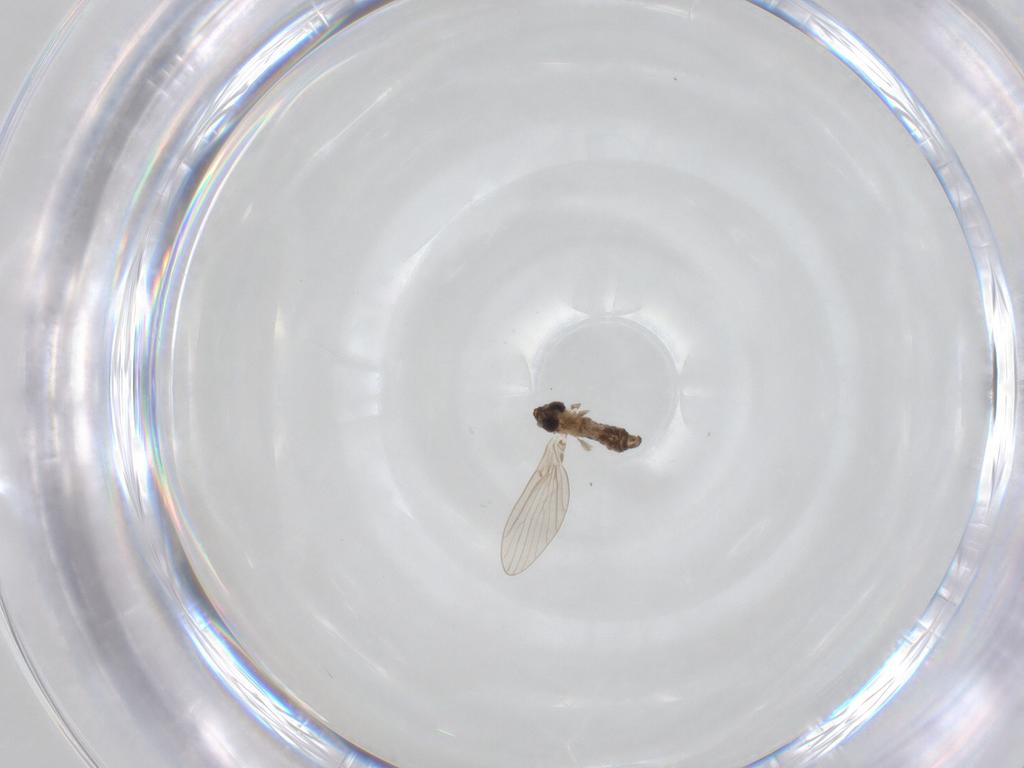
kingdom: Animalia
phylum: Arthropoda
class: Insecta
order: Diptera
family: Psychodidae
